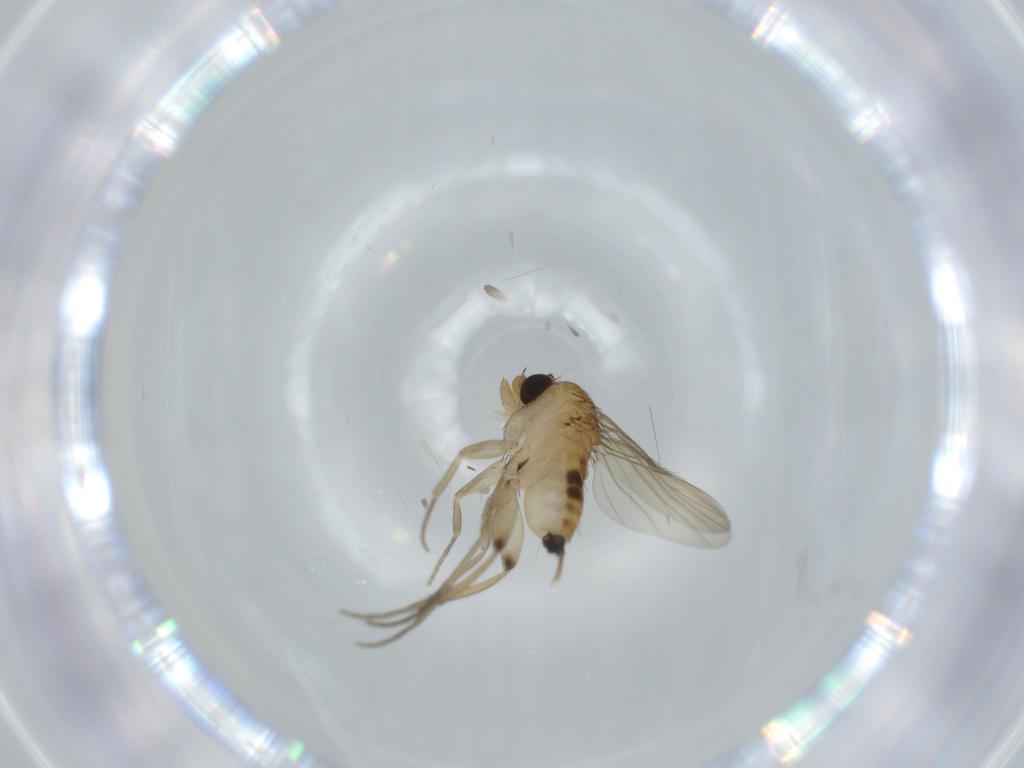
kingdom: Animalia
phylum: Arthropoda
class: Insecta
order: Diptera
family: Phoridae
